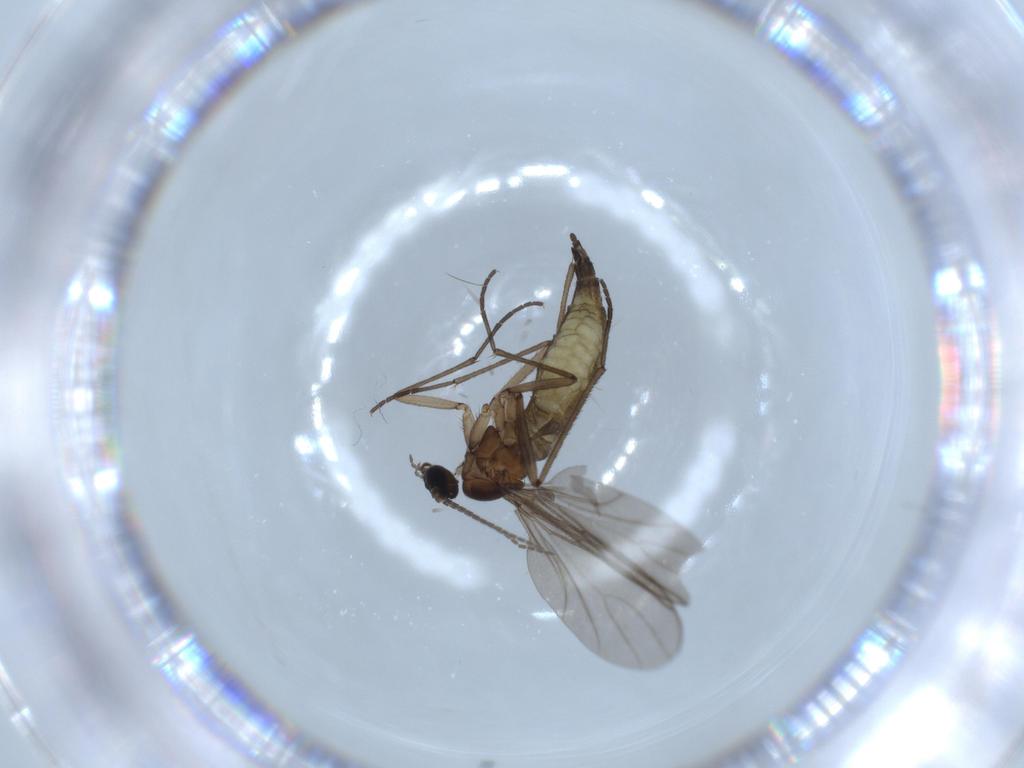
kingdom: Animalia
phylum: Arthropoda
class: Insecta
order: Diptera
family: Sciaridae
